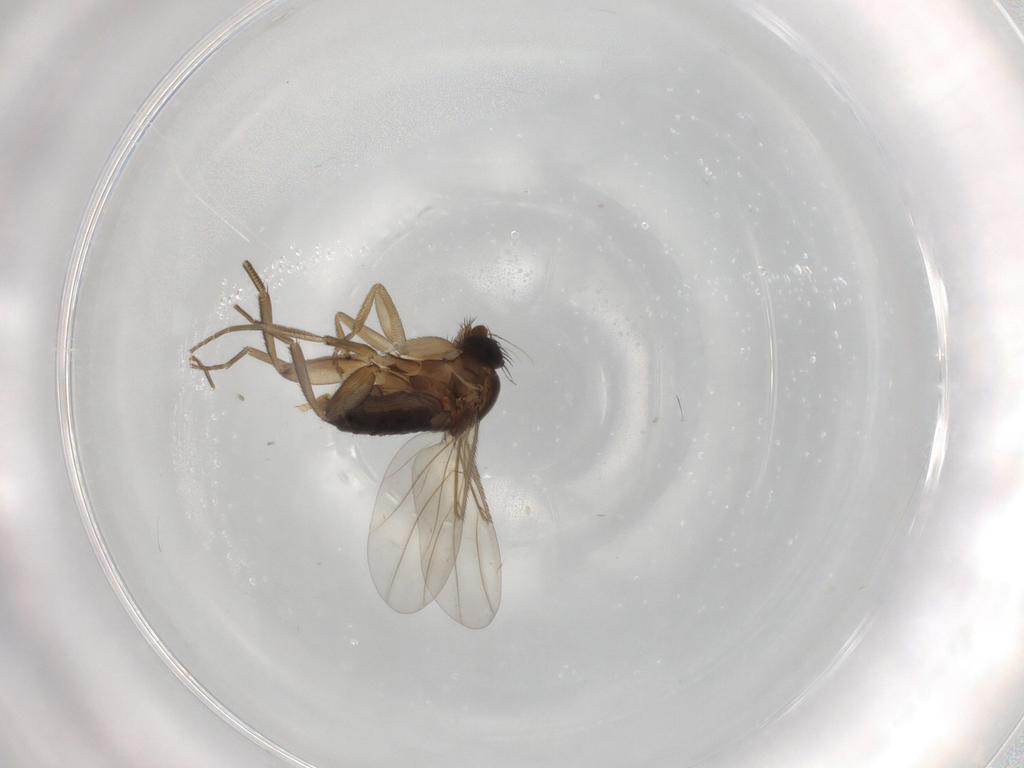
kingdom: Animalia
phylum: Arthropoda
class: Insecta
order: Diptera
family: Phoridae
